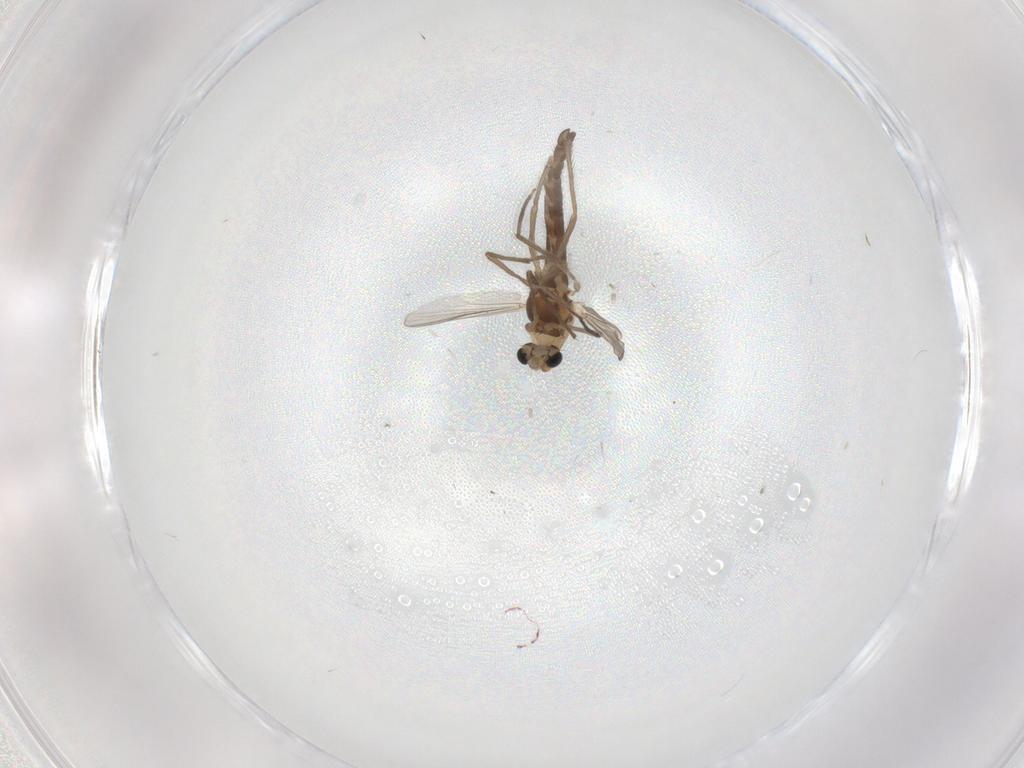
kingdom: Animalia
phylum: Arthropoda
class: Insecta
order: Diptera
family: Chironomidae
